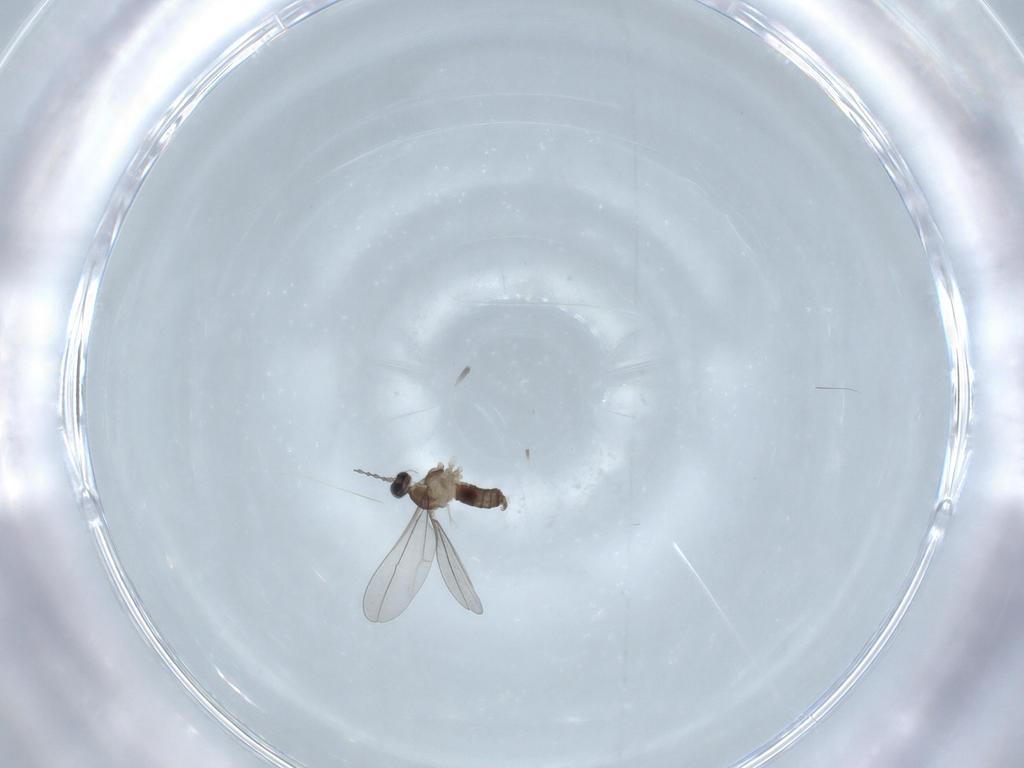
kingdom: Animalia
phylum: Arthropoda
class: Insecta
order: Diptera
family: Cecidomyiidae
